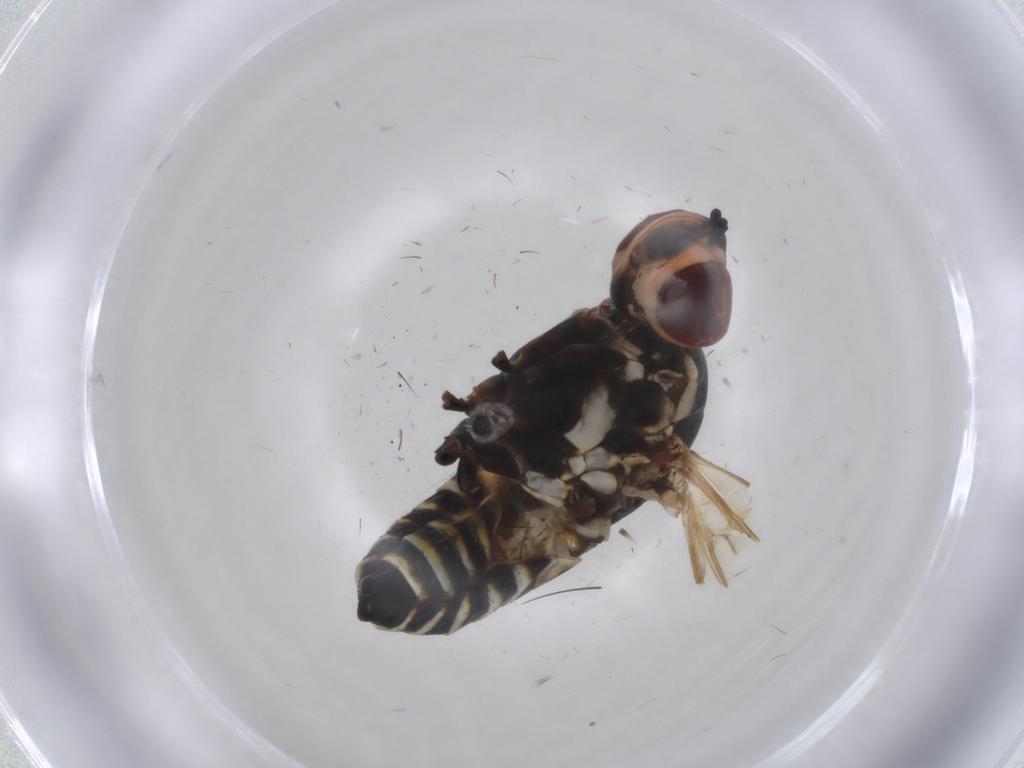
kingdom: Animalia
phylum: Arthropoda
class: Insecta
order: Diptera
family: Bombyliidae
